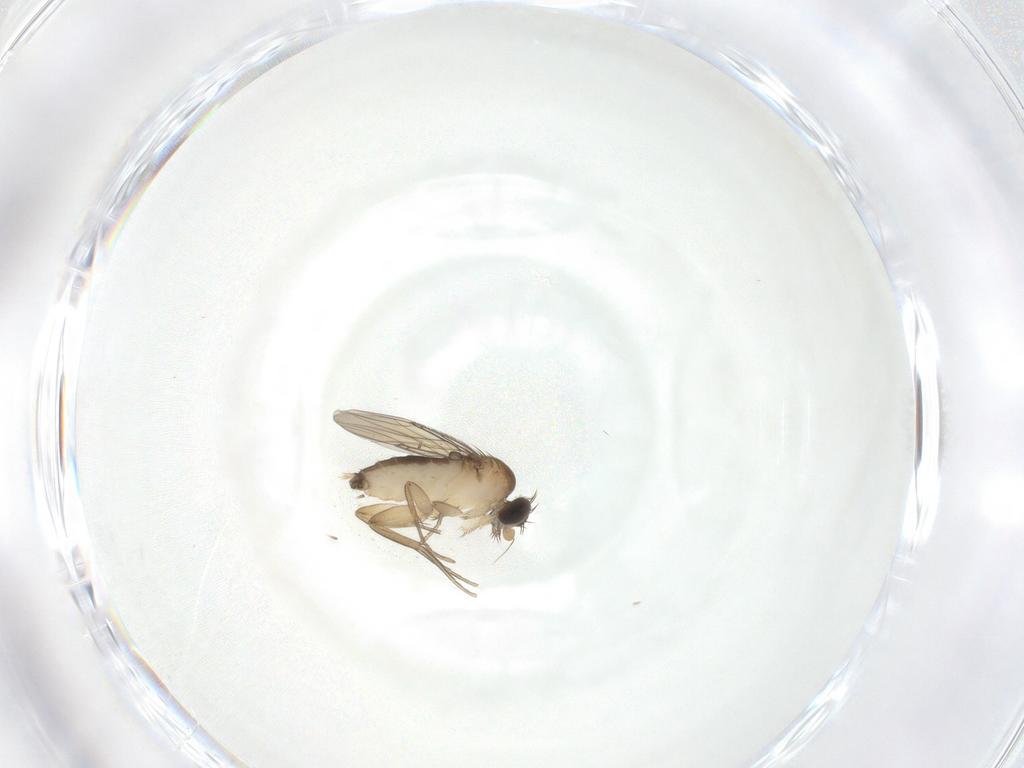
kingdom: Animalia
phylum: Arthropoda
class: Insecta
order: Diptera
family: Phoridae
